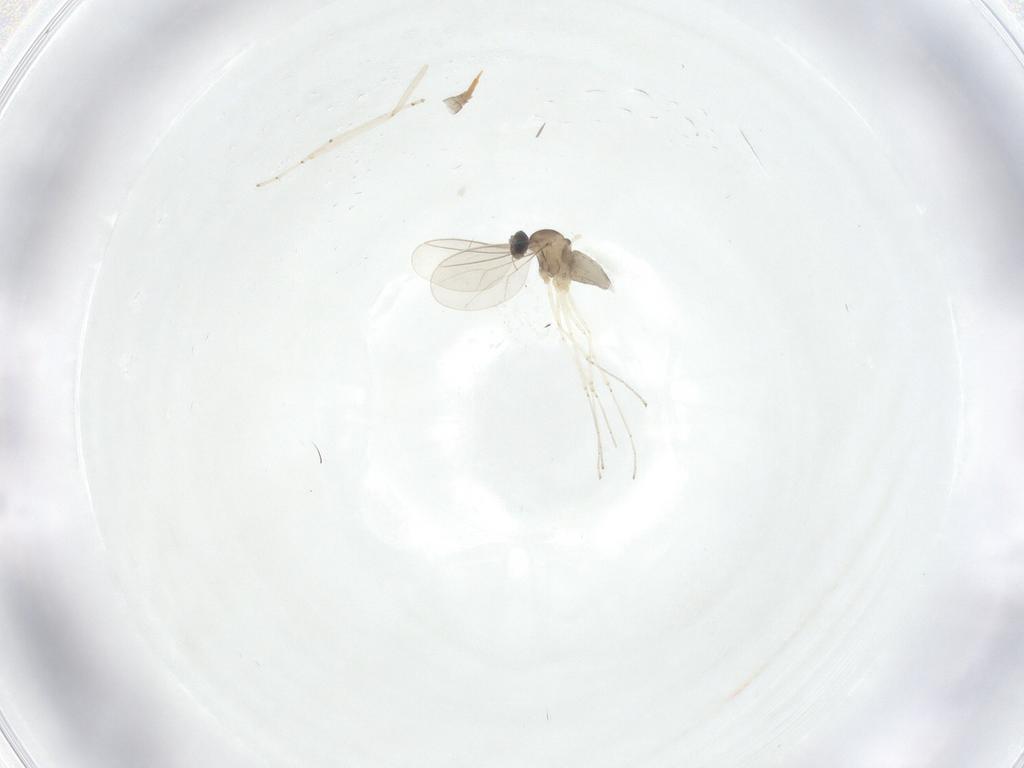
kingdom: Animalia
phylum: Arthropoda
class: Insecta
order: Diptera
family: Cecidomyiidae
